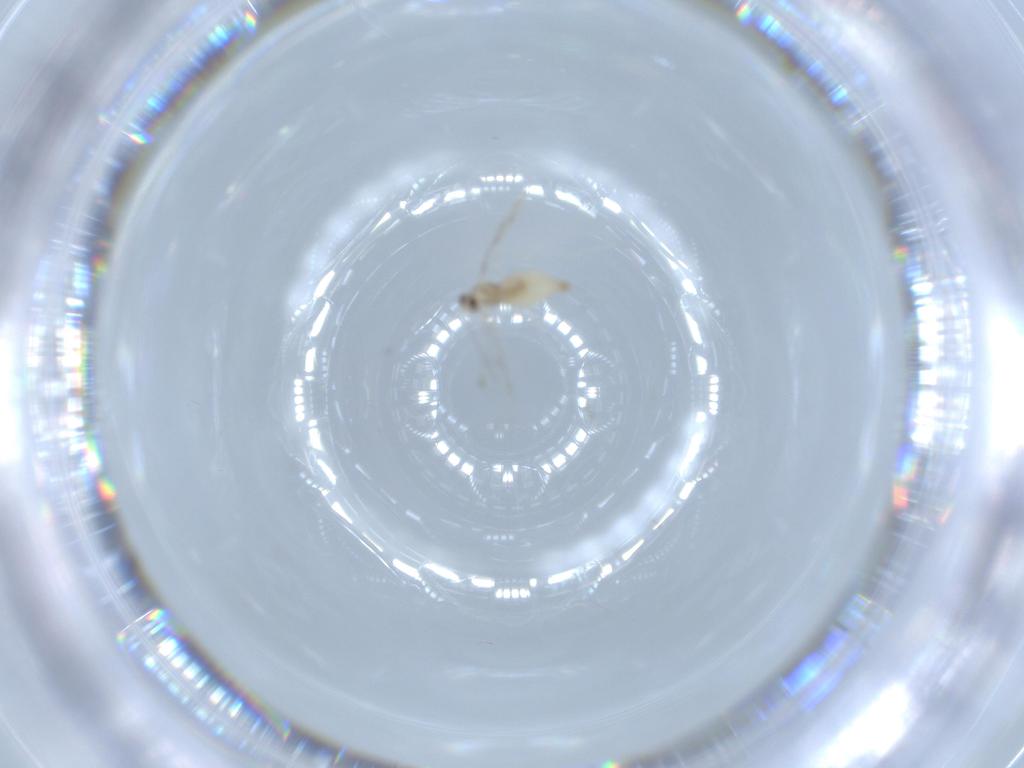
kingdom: Animalia
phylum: Arthropoda
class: Insecta
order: Diptera
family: Cecidomyiidae
